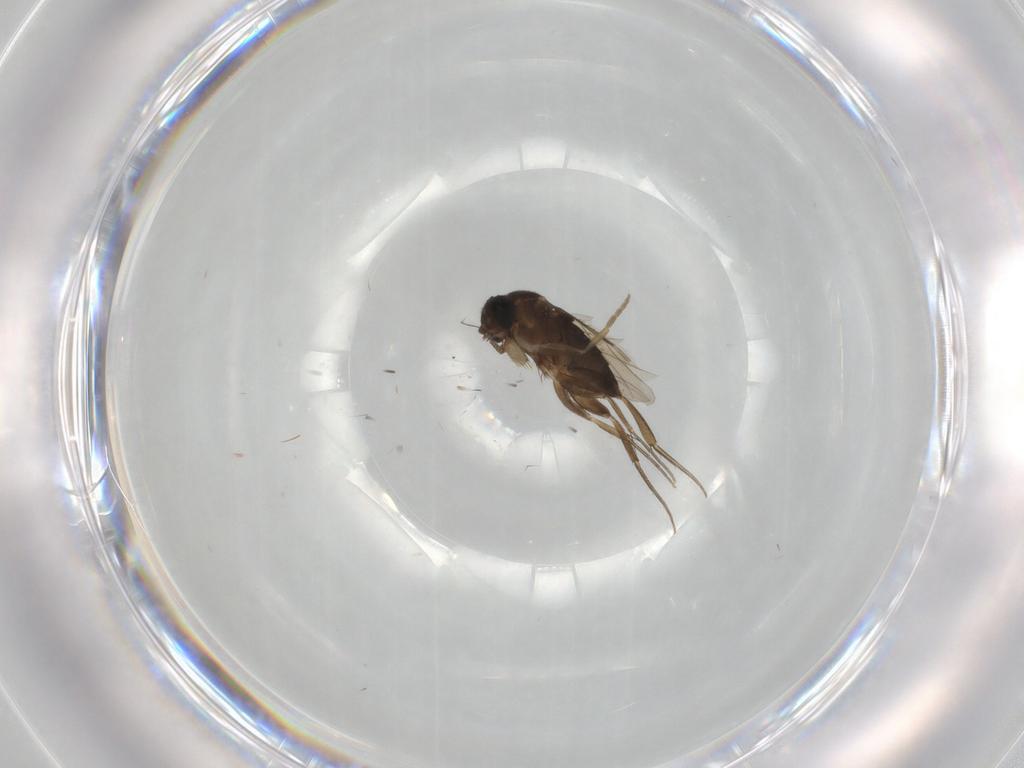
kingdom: Animalia
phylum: Arthropoda
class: Insecta
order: Diptera
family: Phoridae
